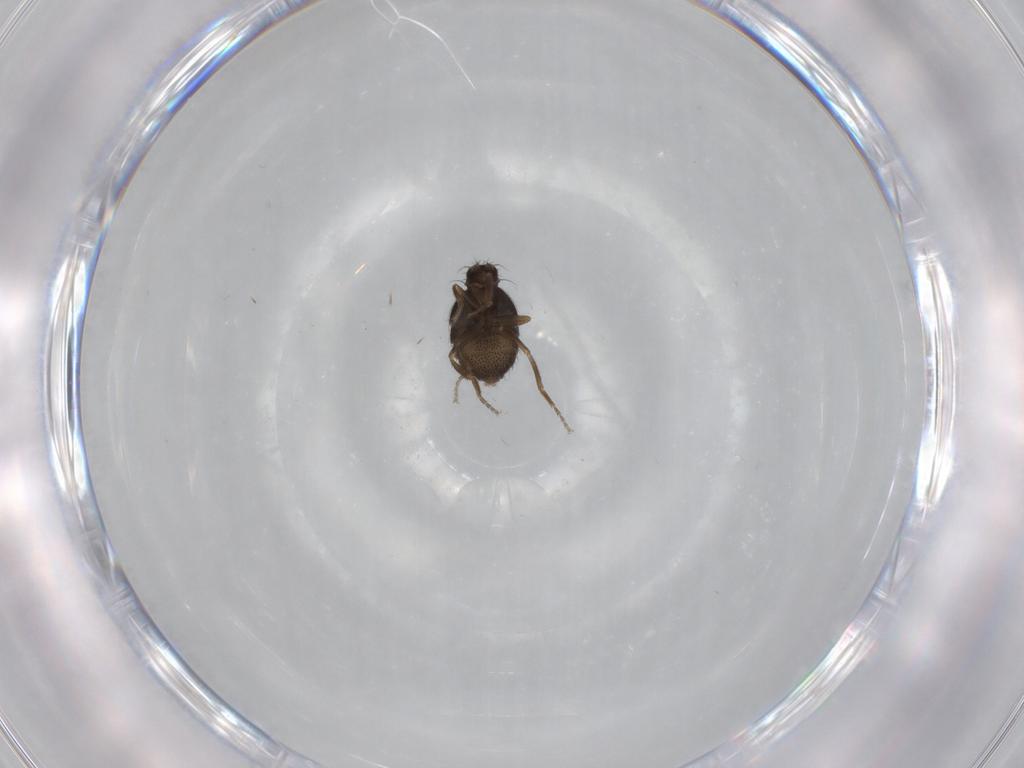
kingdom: Animalia
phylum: Arthropoda
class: Insecta
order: Diptera
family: Phoridae
